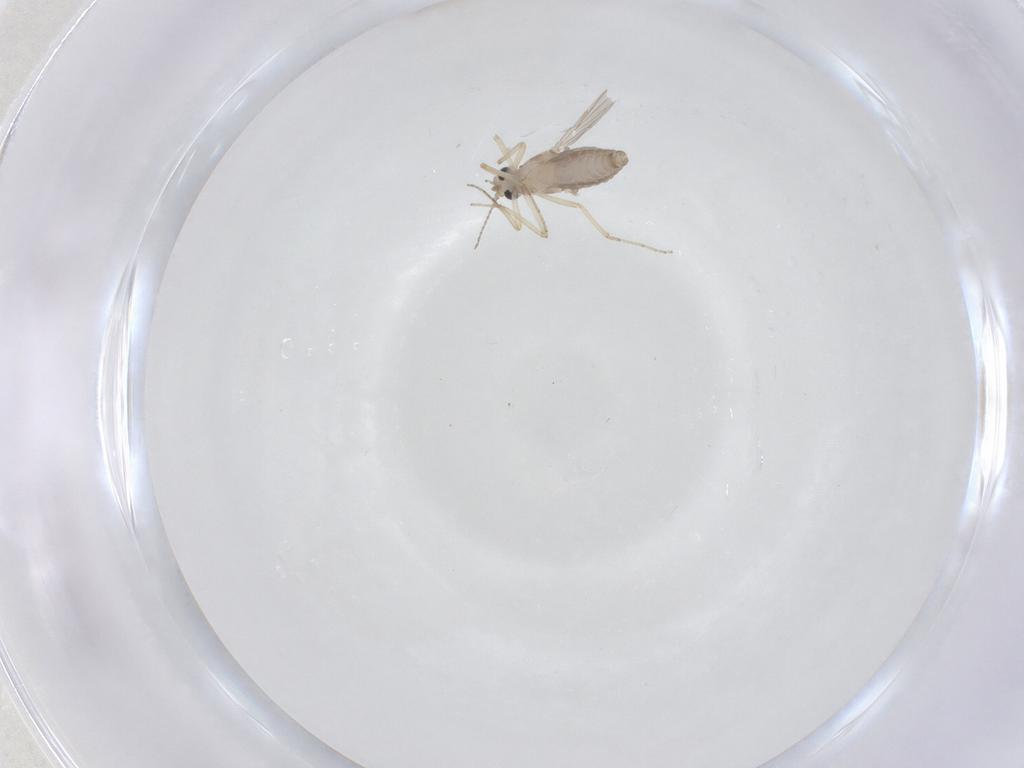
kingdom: Animalia
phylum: Arthropoda
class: Insecta
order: Diptera
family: Ceratopogonidae
